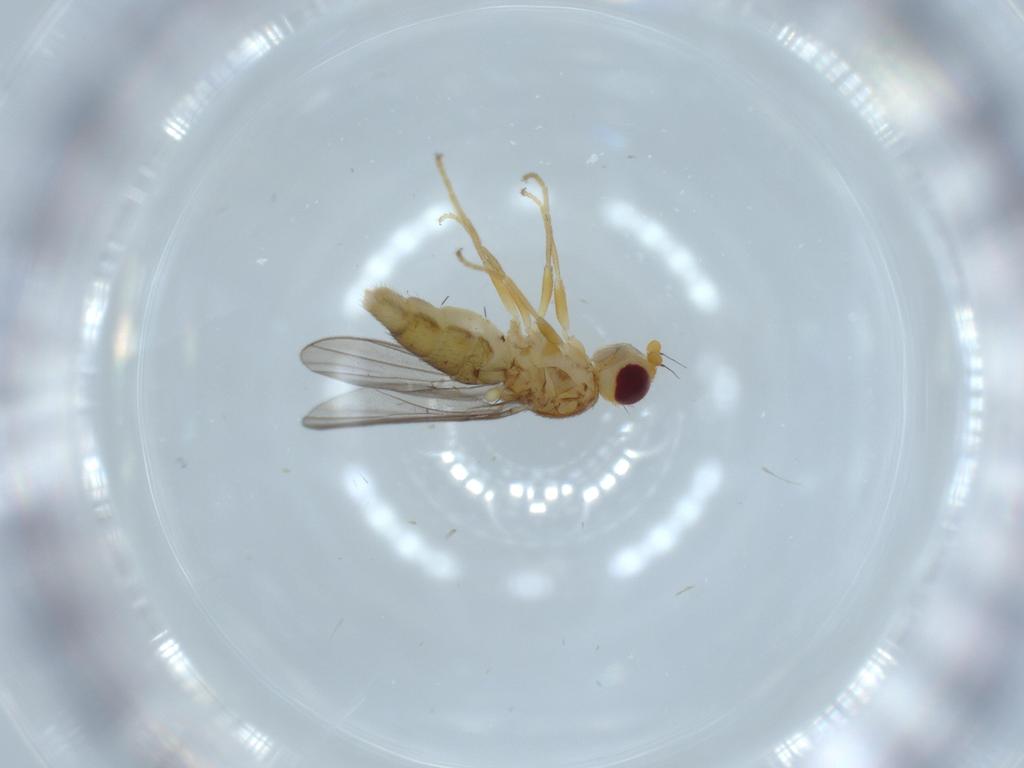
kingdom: Animalia
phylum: Arthropoda
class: Insecta
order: Diptera
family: Chloropidae
